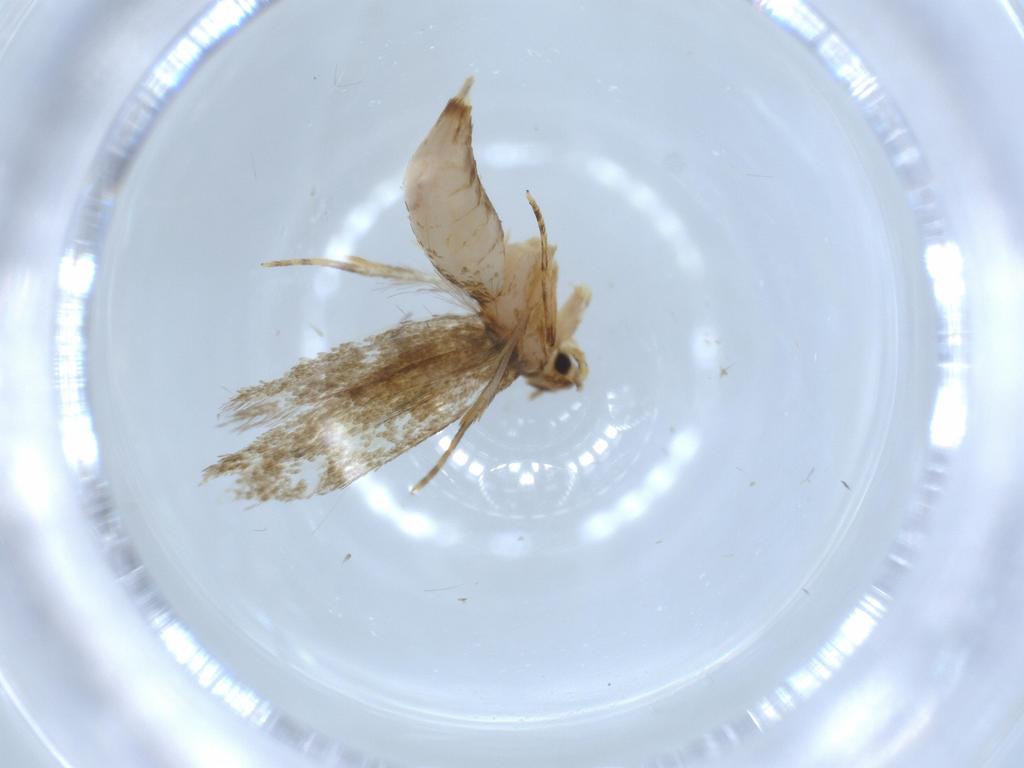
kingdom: Animalia
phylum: Arthropoda
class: Insecta
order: Lepidoptera
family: Tineidae
